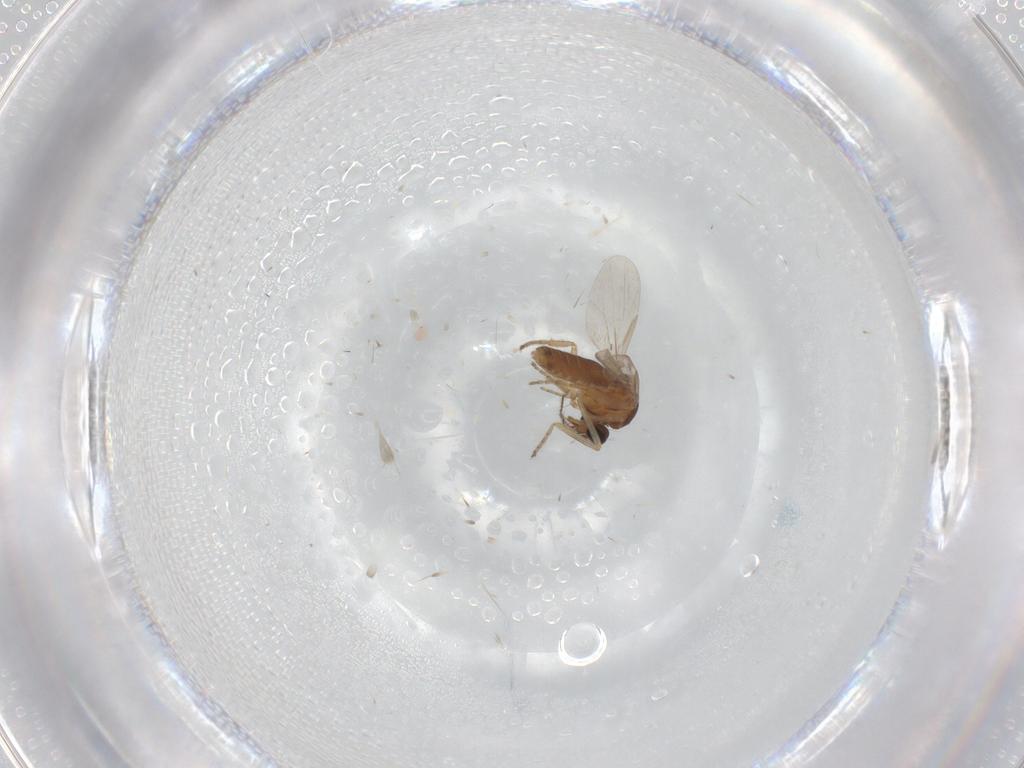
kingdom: Animalia
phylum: Arthropoda
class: Insecta
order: Diptera
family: Ceratopogonidae
